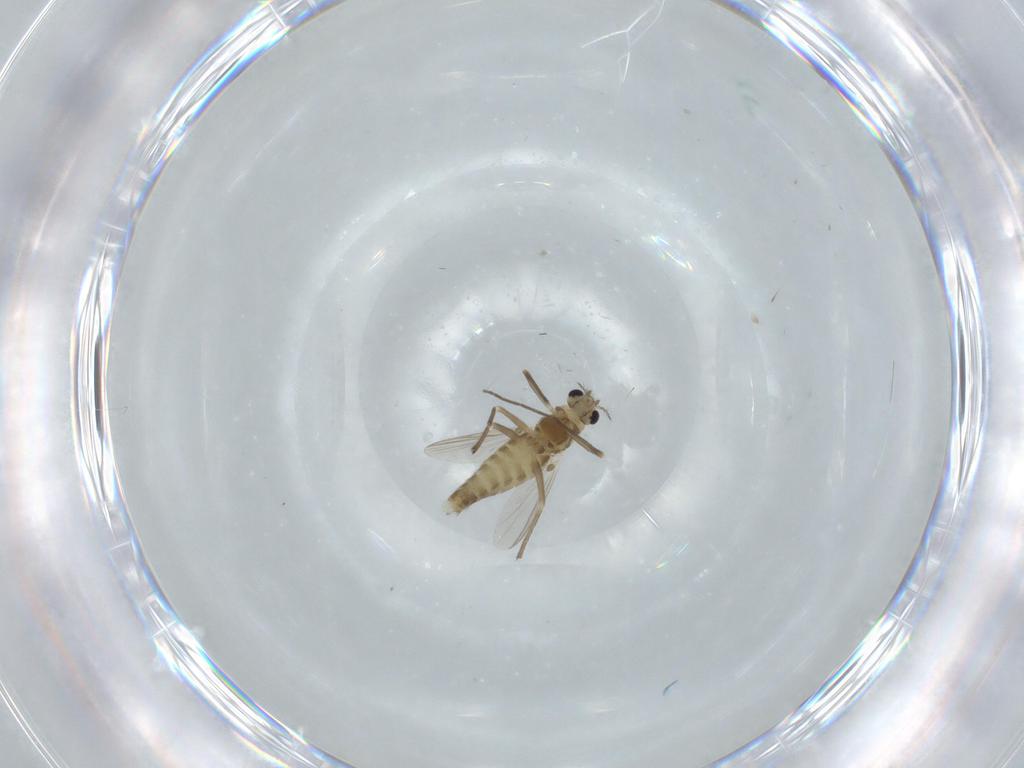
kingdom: Animalia
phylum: Arthropoda
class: Insecta
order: Diptera
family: Chironomidae
